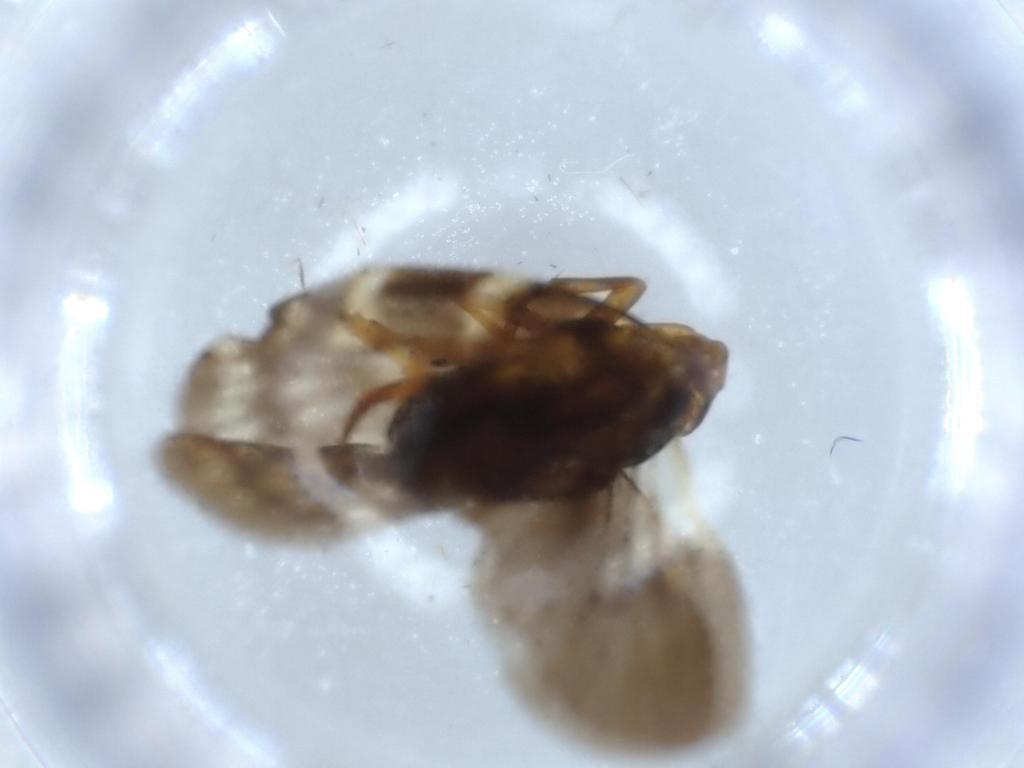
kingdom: Animalia
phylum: Arthropoda
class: Insecta
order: Hemiptera
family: Cixiidae
